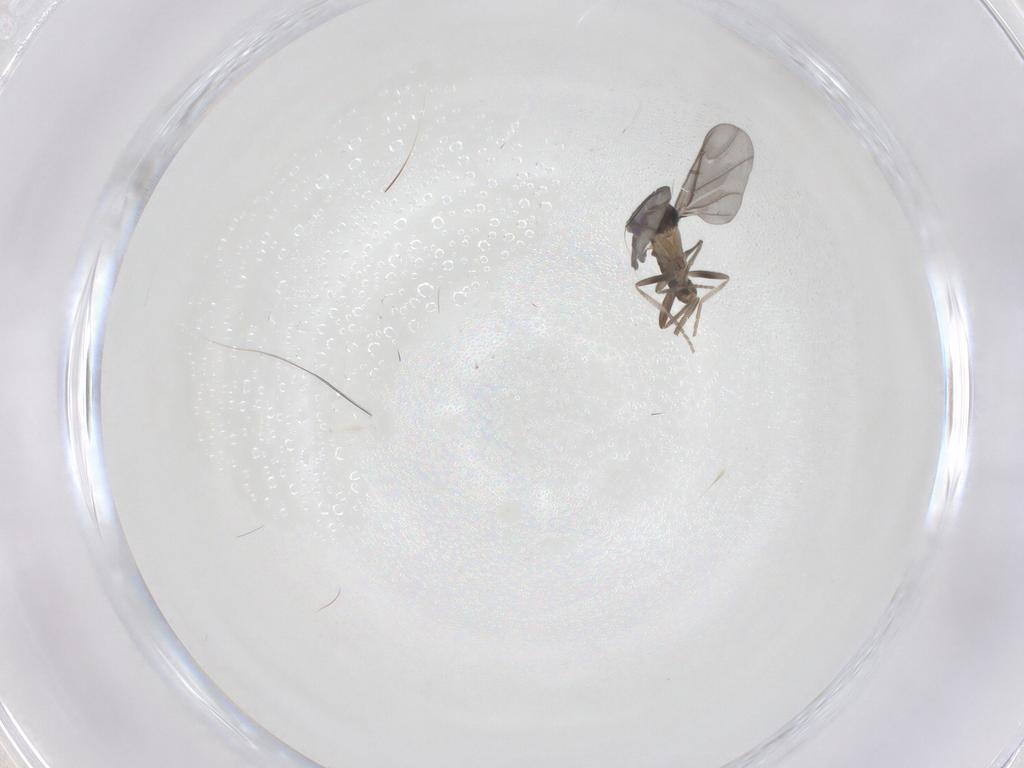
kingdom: Animalia
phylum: Arthropoda
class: Insecta
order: Diptera
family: Phoridae
